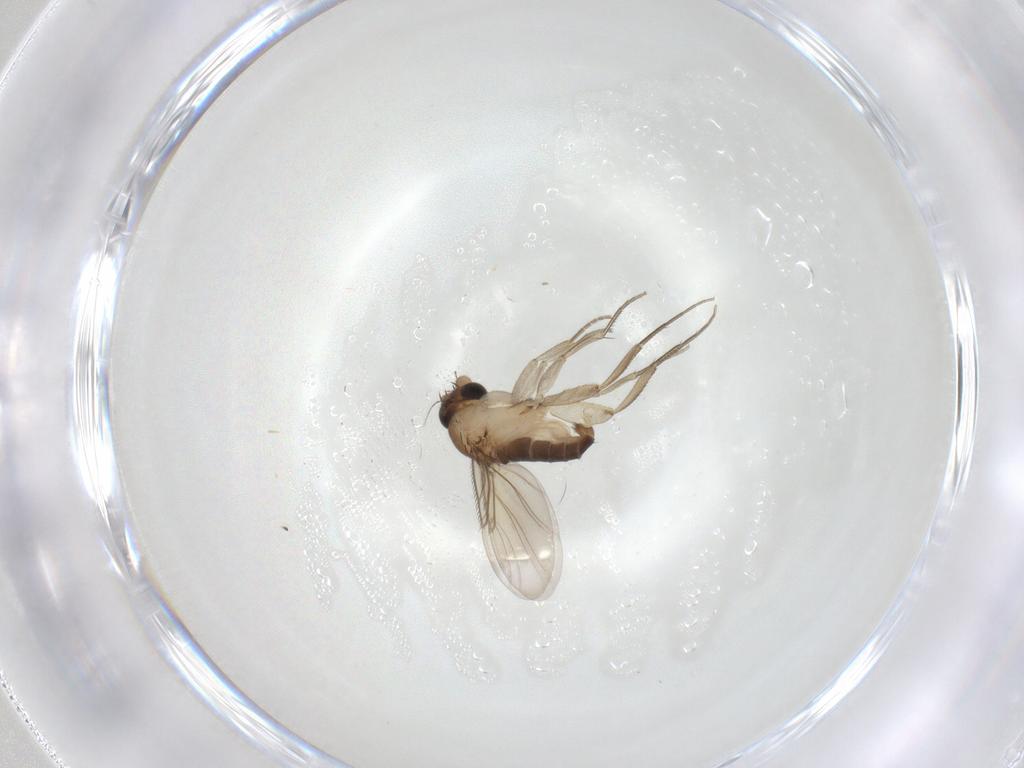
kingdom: Animalia
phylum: Arthropoda
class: Insecta
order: Diptera
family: Phoridae
